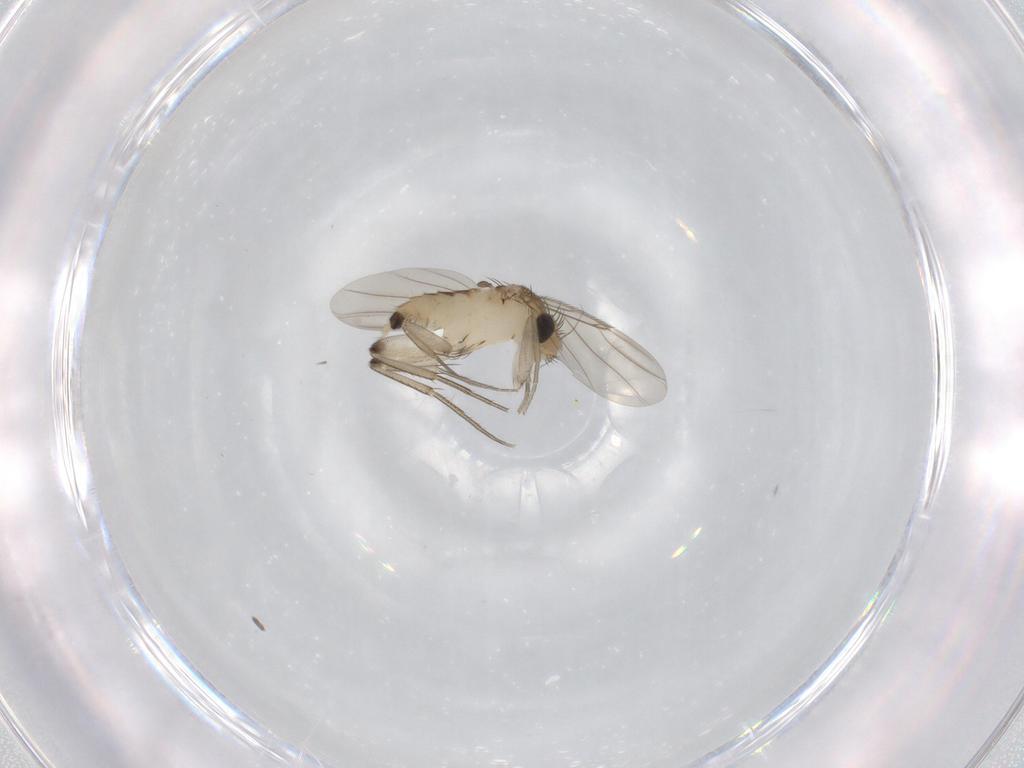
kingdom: Animalia
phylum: Arthropoda
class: Insecta
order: Diptera
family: Phoridae
